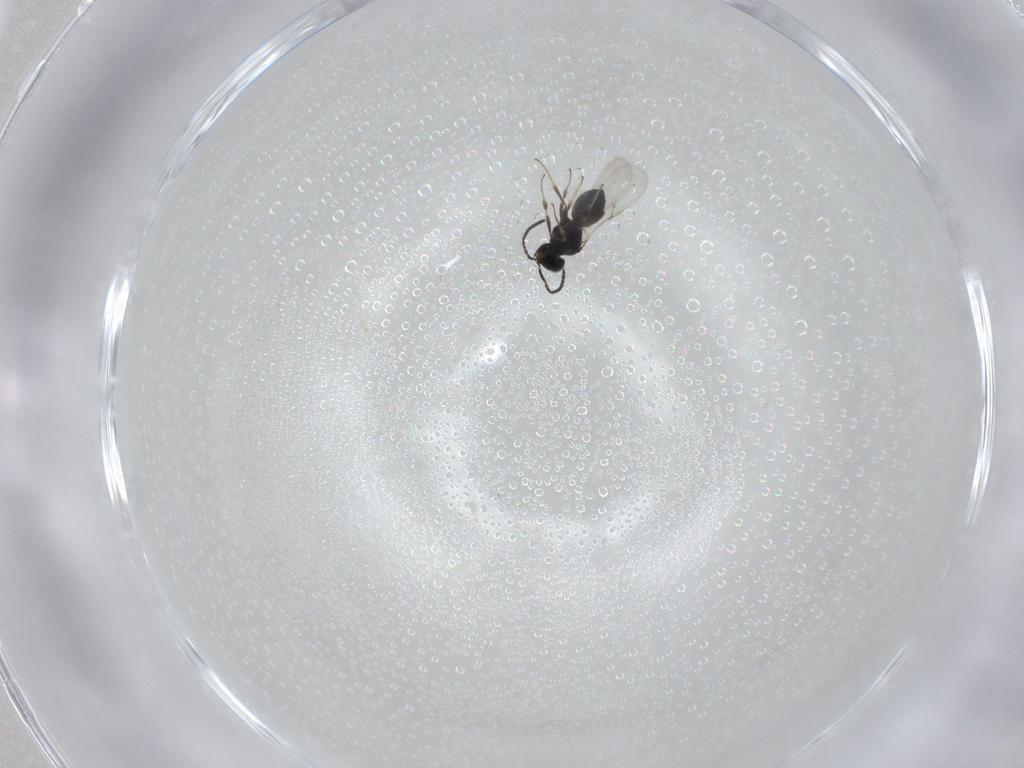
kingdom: Animalia
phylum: Arthropoda
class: Insecta
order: Hymenoptera
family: Scelionidae
